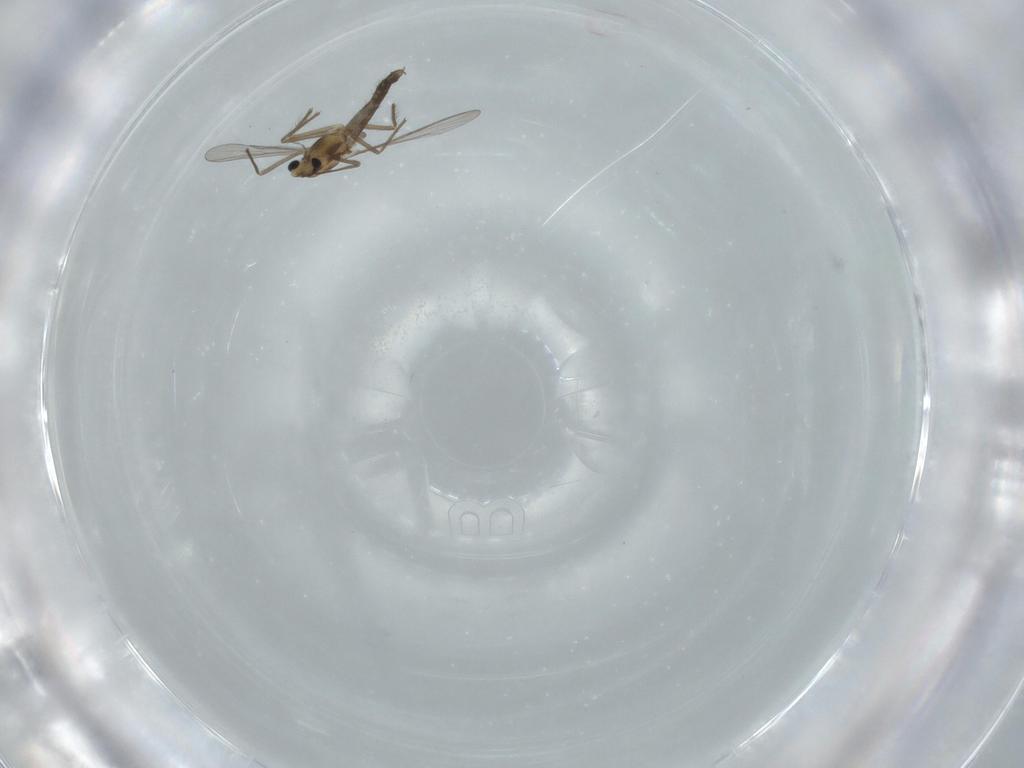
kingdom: Animalia
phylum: Arthropoda
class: Insecta
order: Diptera
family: Chironomidae
